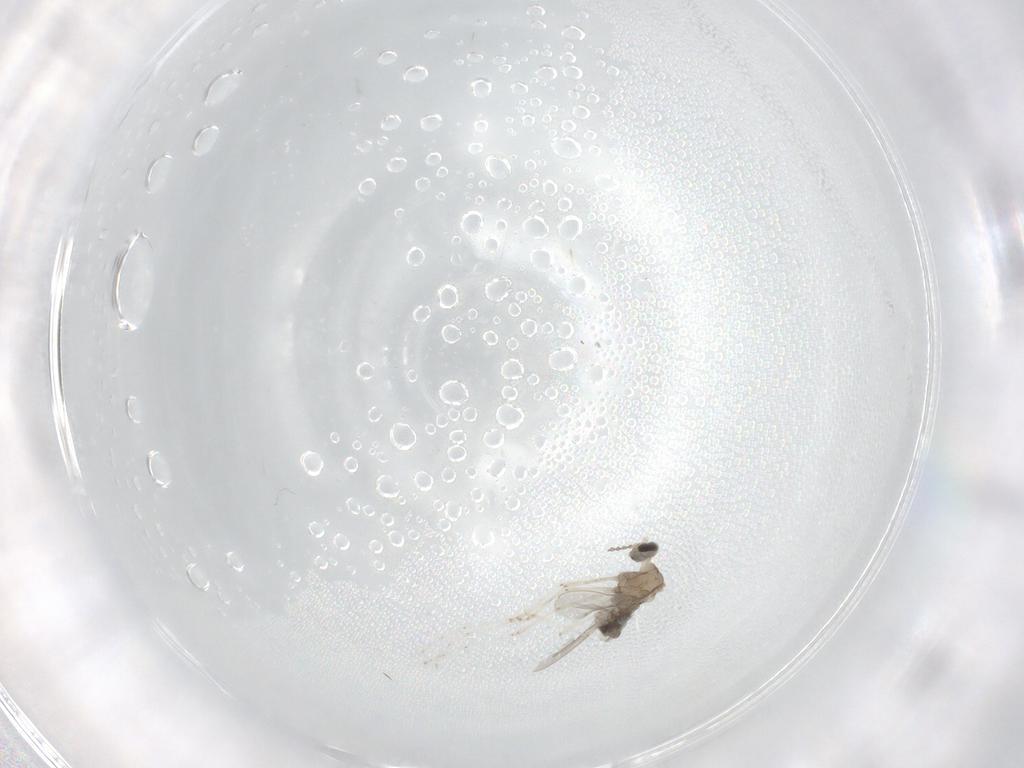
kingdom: Animalia
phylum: Arthropoda
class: Insecta
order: Diptera
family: Cecidomyiidae
